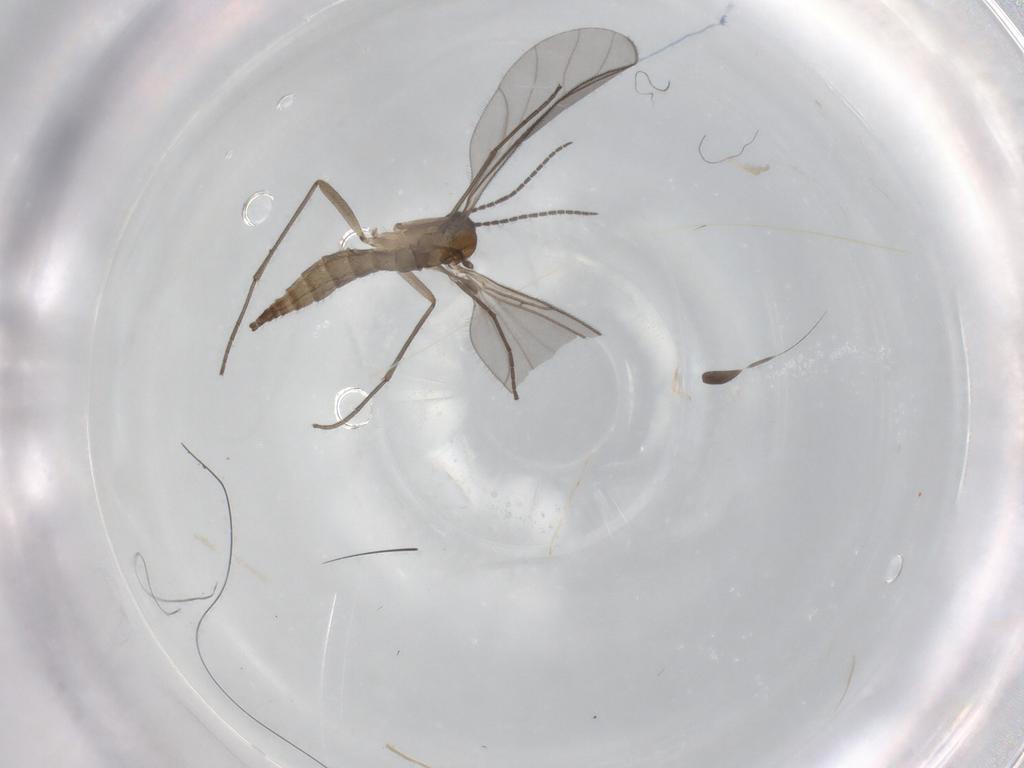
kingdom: Animalia
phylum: Arthropoda
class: Insecta
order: Diptera
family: Sciaridae
